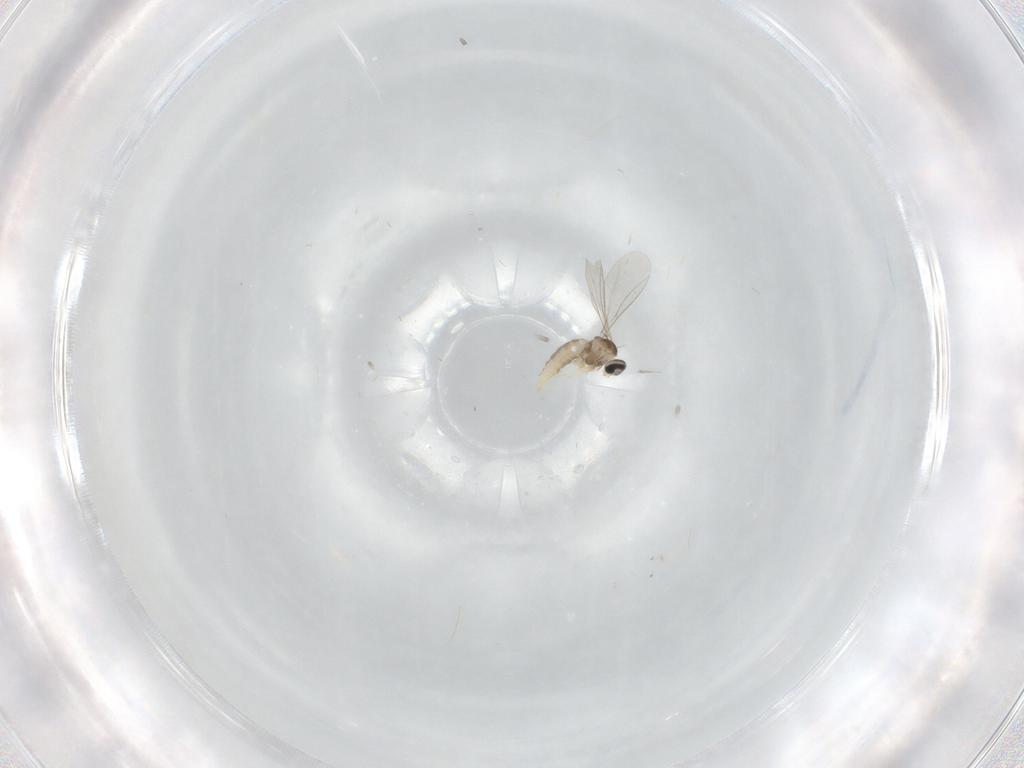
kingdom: Animalia
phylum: Arthropoda
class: Insecta
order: Diptera
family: Cecidomyiidae
